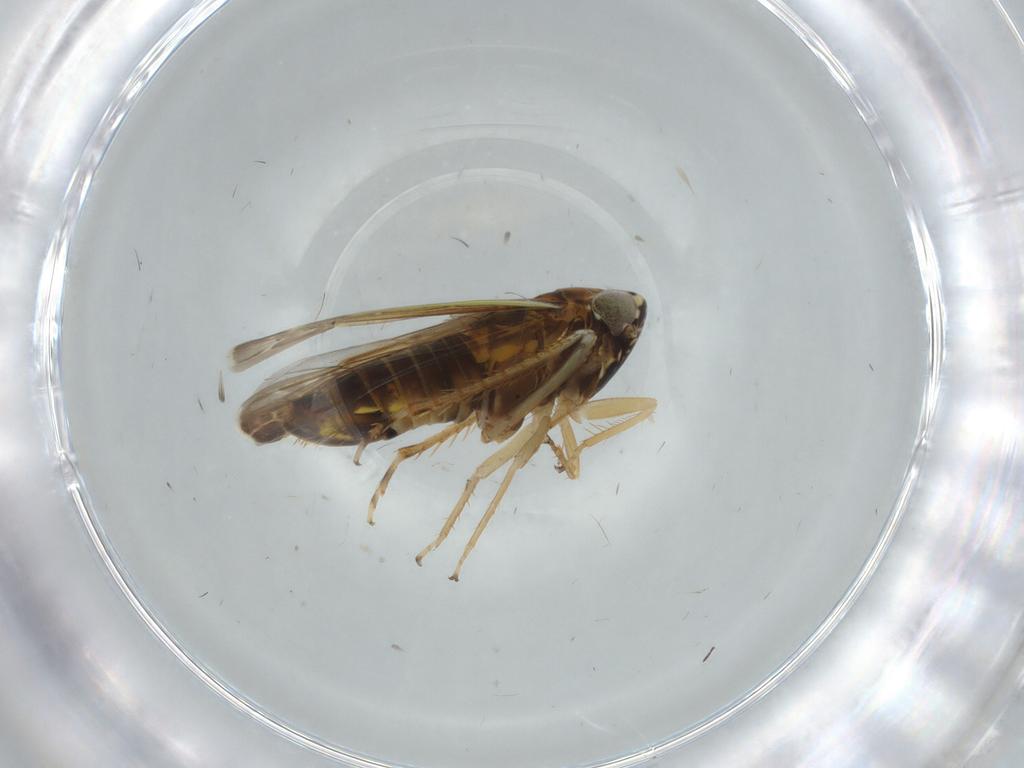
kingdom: Animalia
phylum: Arthropoda
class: Insecta
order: Hemiptera
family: Cicadellidae
